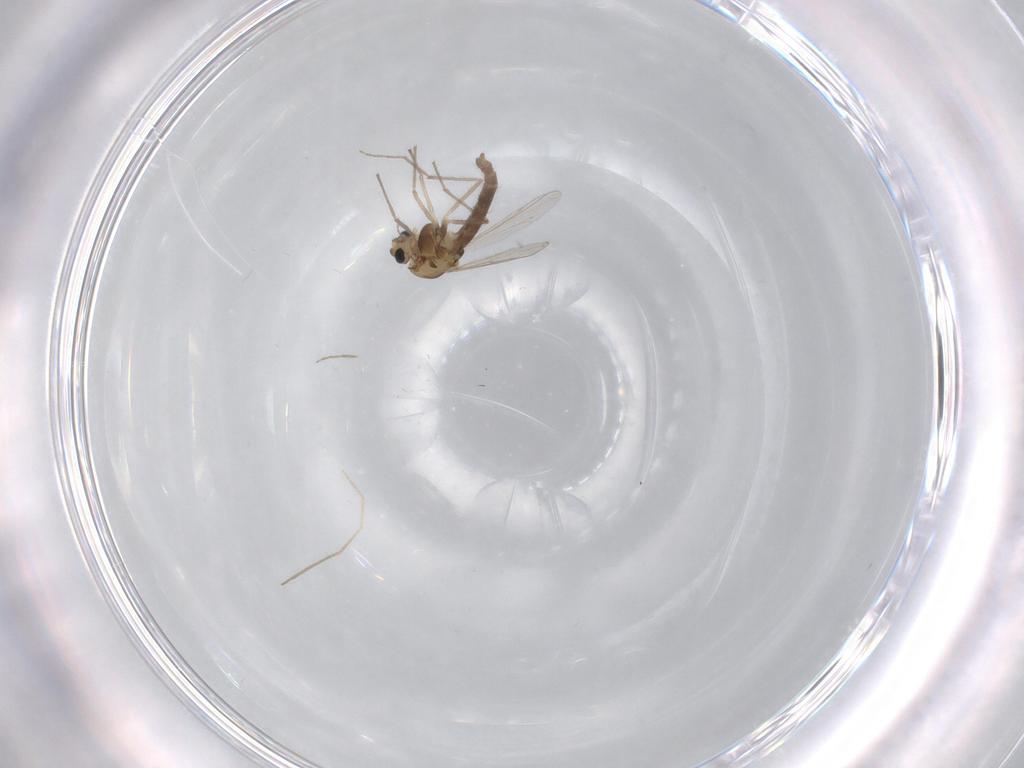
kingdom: Animalia
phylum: Arthropoda
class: Insecta
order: Diptera
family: Chironomidae
